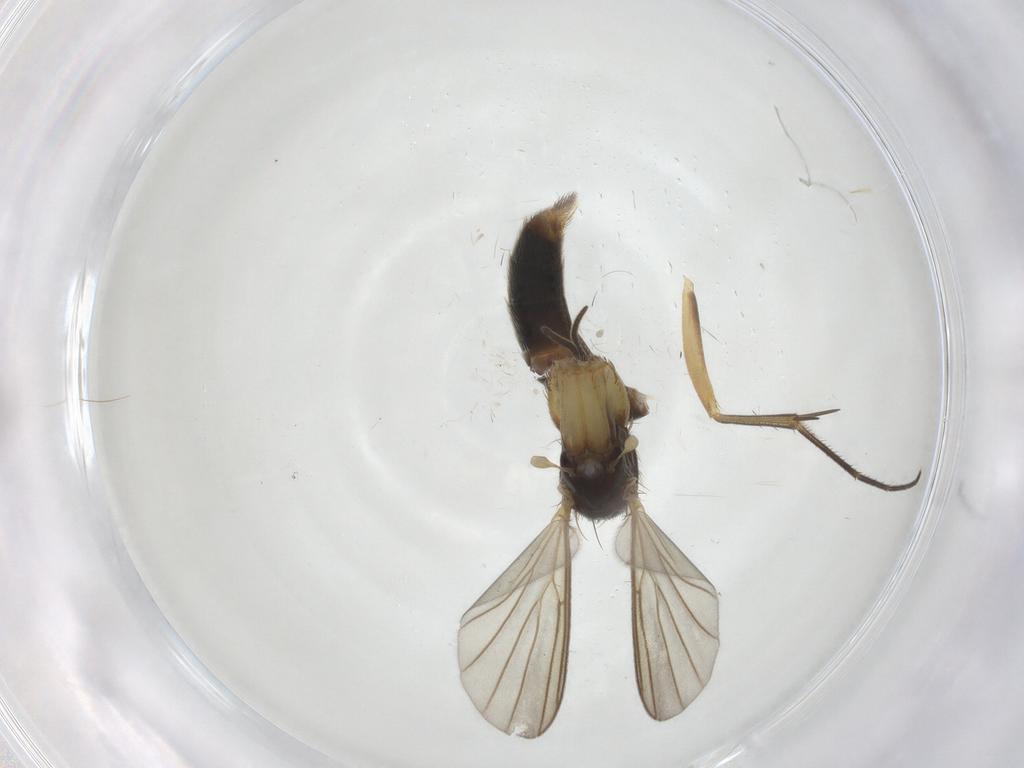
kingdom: Animalia
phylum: Arthropoda
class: Insecta
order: Diptera
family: Mycetophilidae
